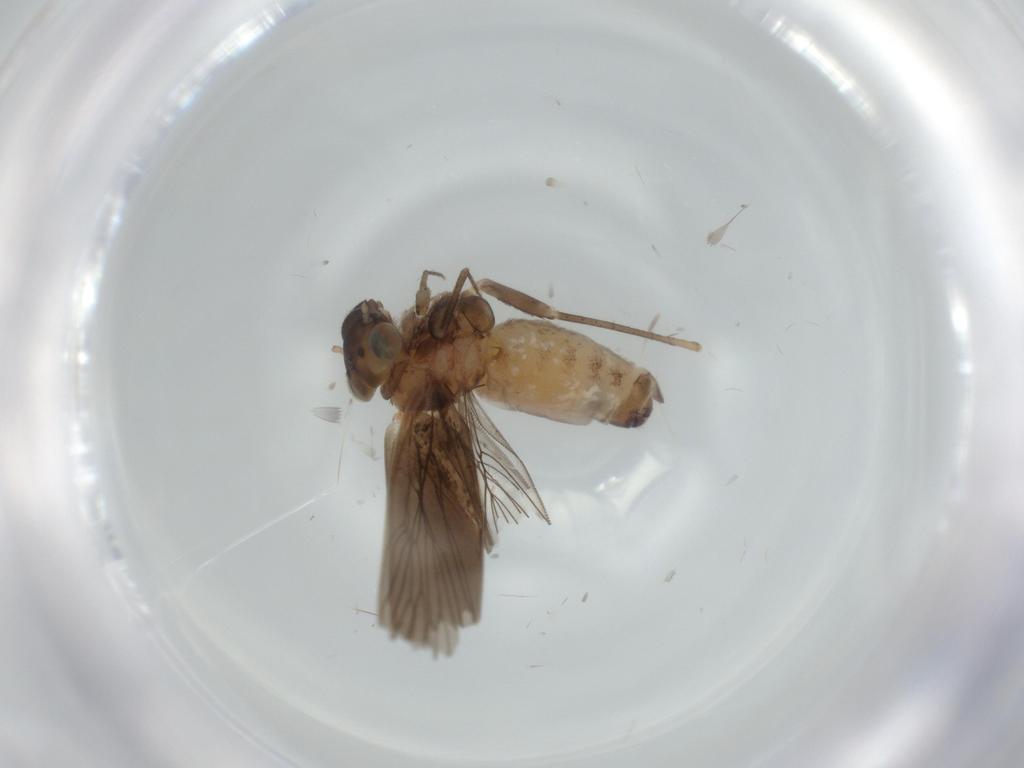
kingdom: Animalia
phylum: Arthropoda
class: Insecta
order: Psocodea
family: Lepidopsocidae
